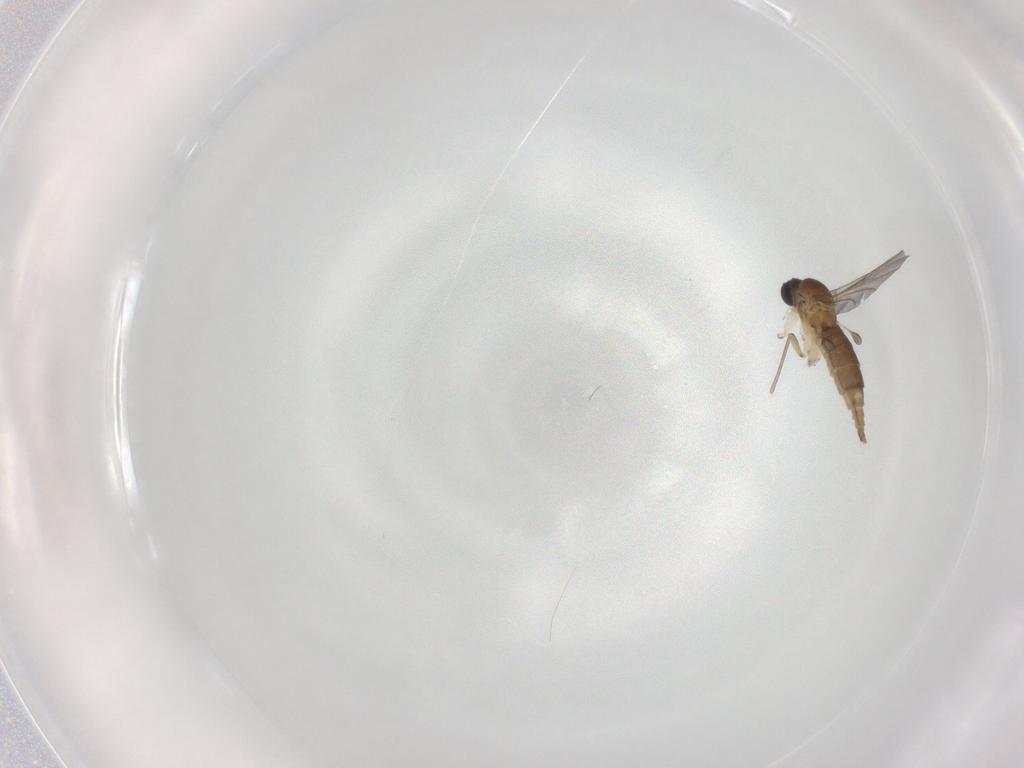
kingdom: Animalia
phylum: Arthropoda
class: Insecta
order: Diptera
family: Sciaridae
